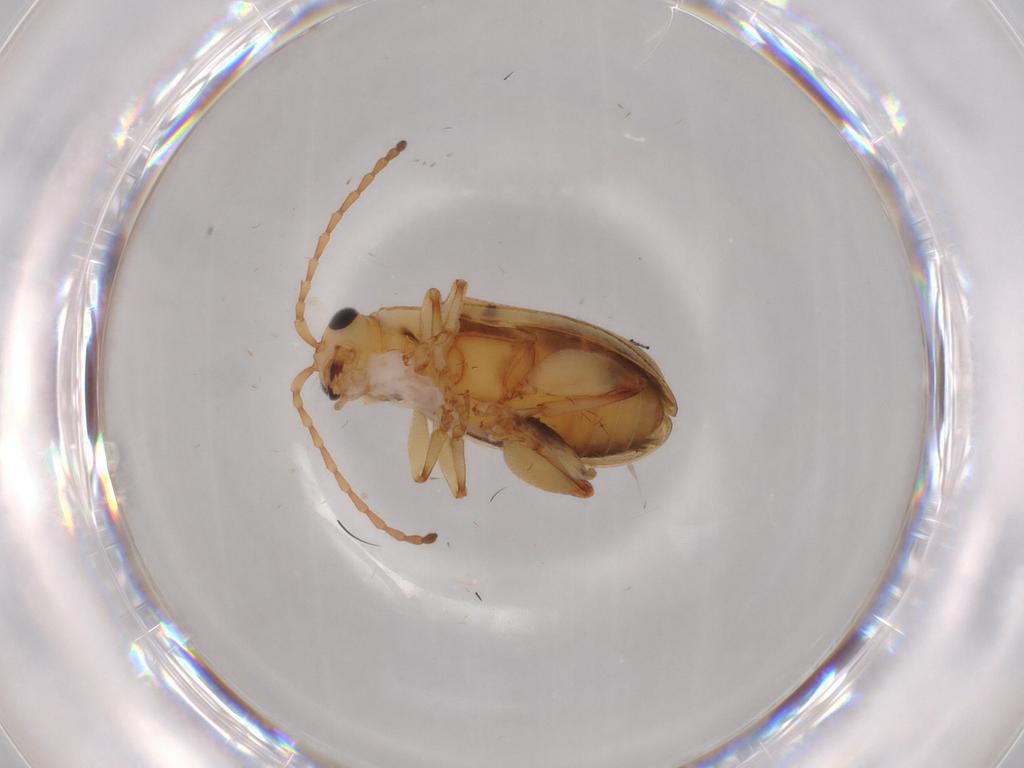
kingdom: Animalia
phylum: Arthropoda
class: Insecta
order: Coleoptera
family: Chrysomelidae
